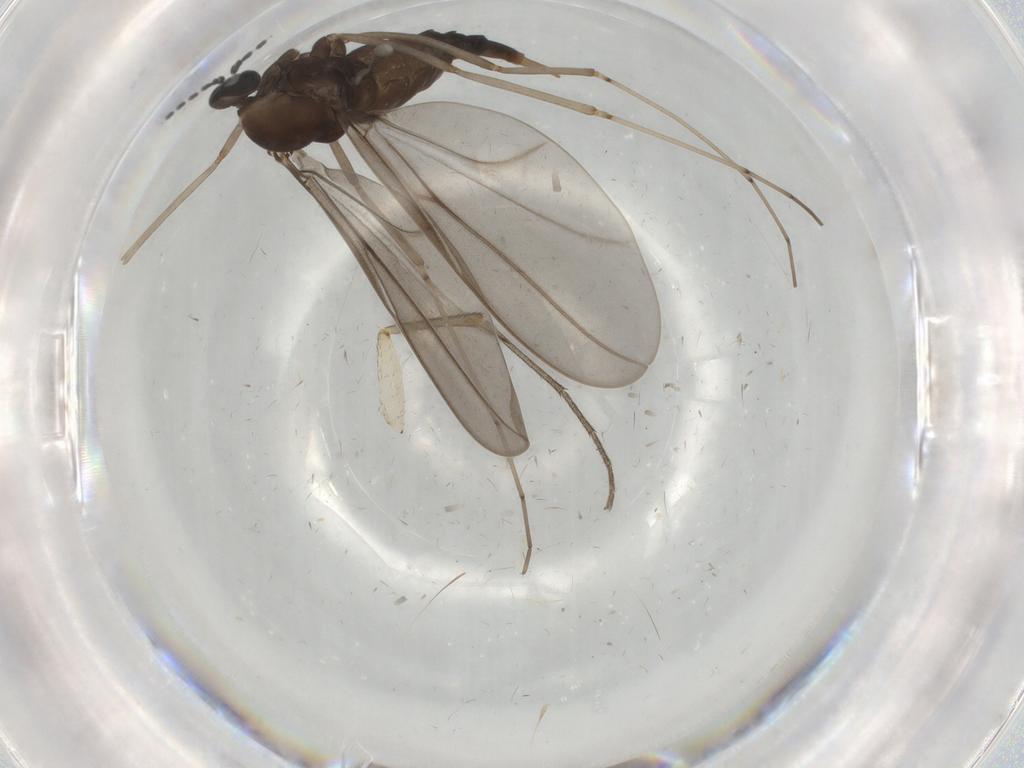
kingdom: Animalia
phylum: Arthropoda
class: Insecta
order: Diptera
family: Cecidomyiidae
